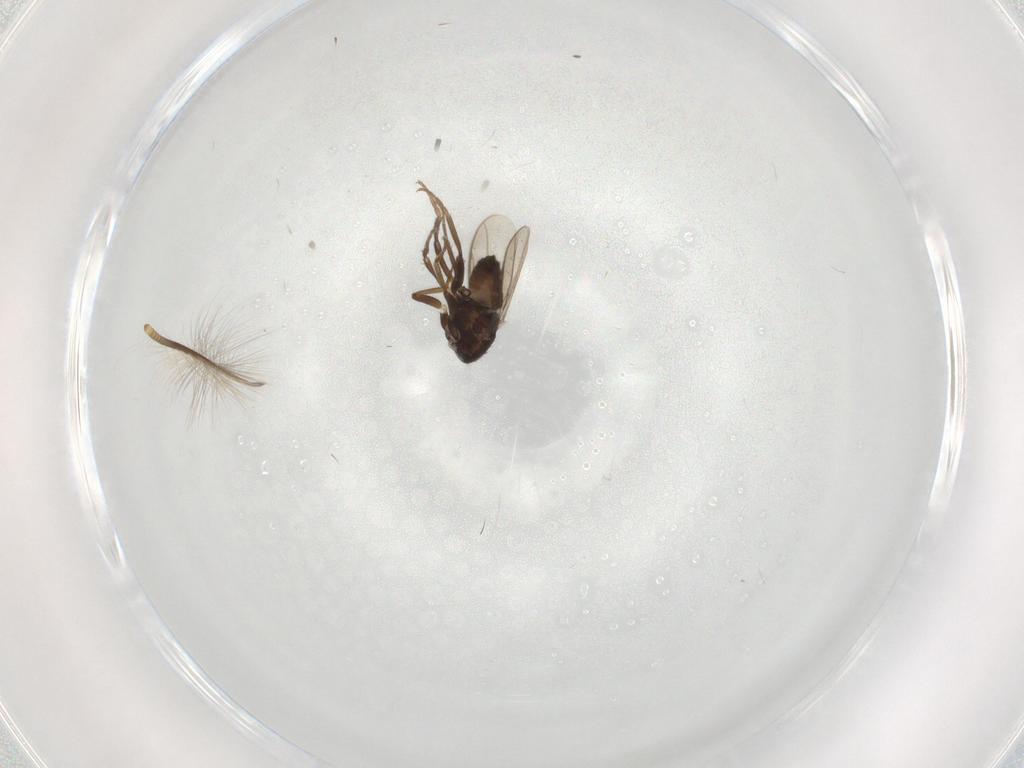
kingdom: Animalia
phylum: Arthropoda
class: Insecta
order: Diptera
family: Sphaeroceridae
